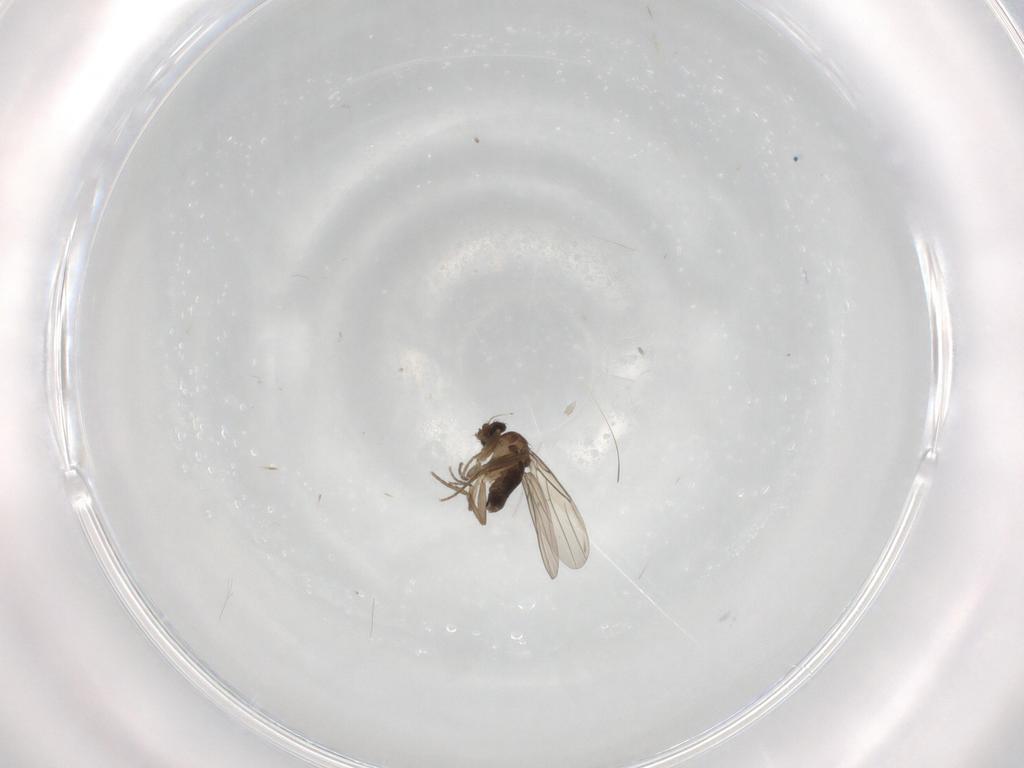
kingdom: Animalia
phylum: Arthropoda
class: Insecta
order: Diptera
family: Phoridae
